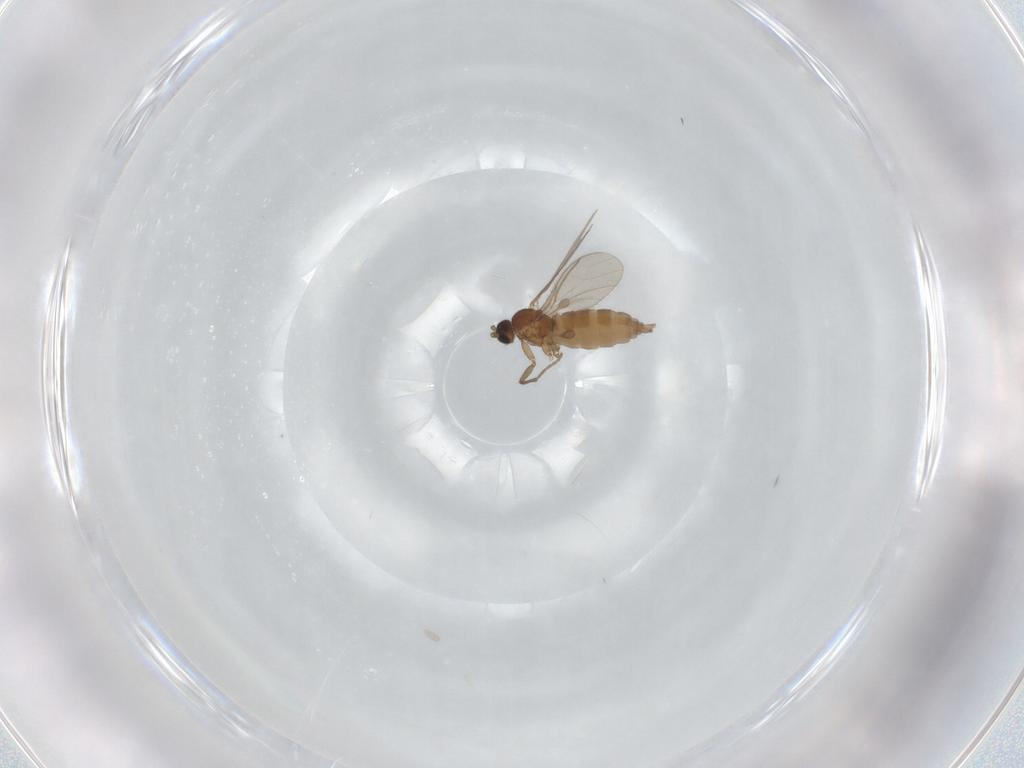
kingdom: Animalia
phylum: Arthropoda
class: Insecta
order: Diptera
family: Sciaridae
